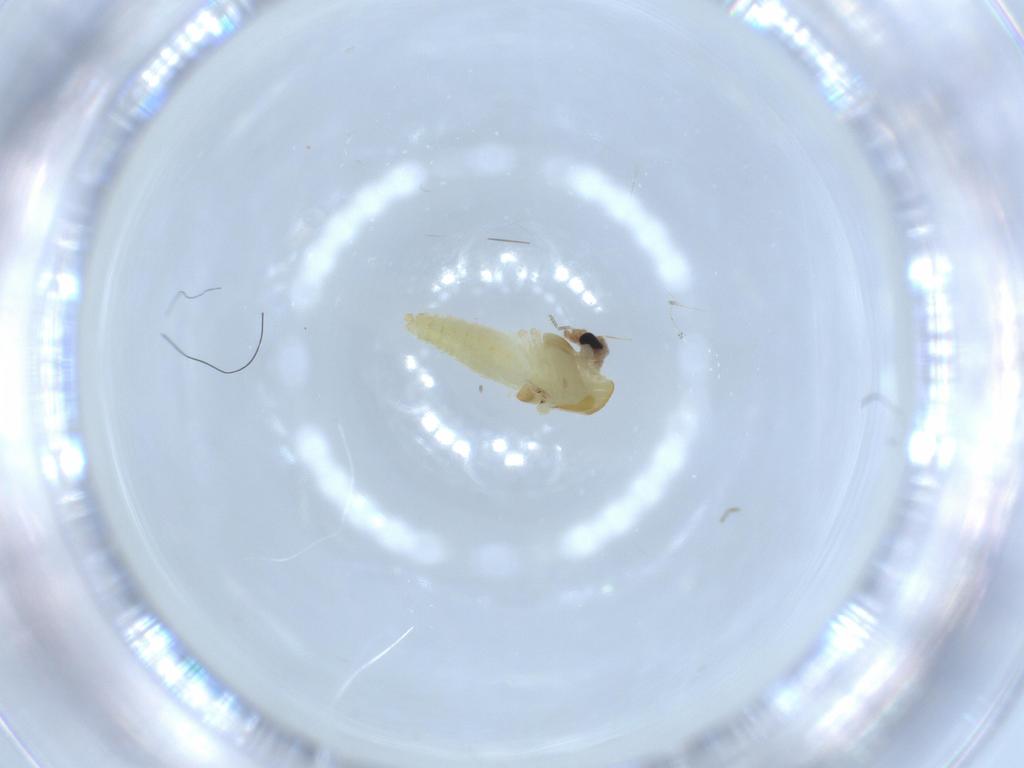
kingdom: Animalia
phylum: Arthropoda
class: Insecta
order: Diptera
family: Chironomidae
